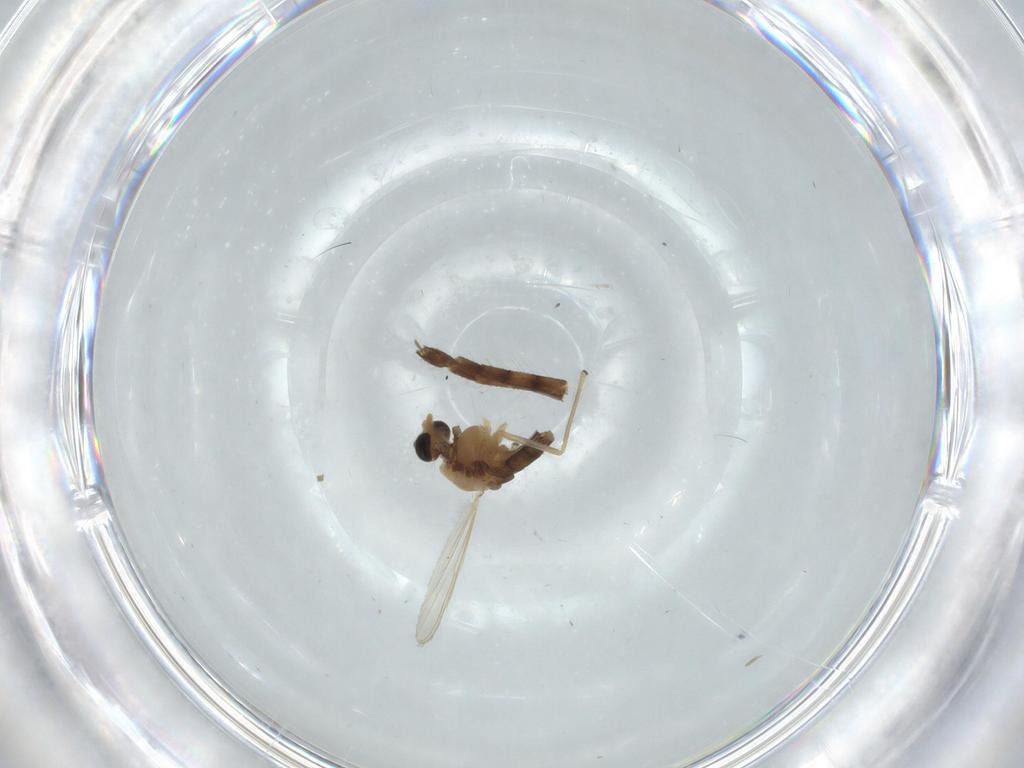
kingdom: Animalia
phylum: Arthropoda
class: Insecta
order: Diptera
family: Chironomidae
